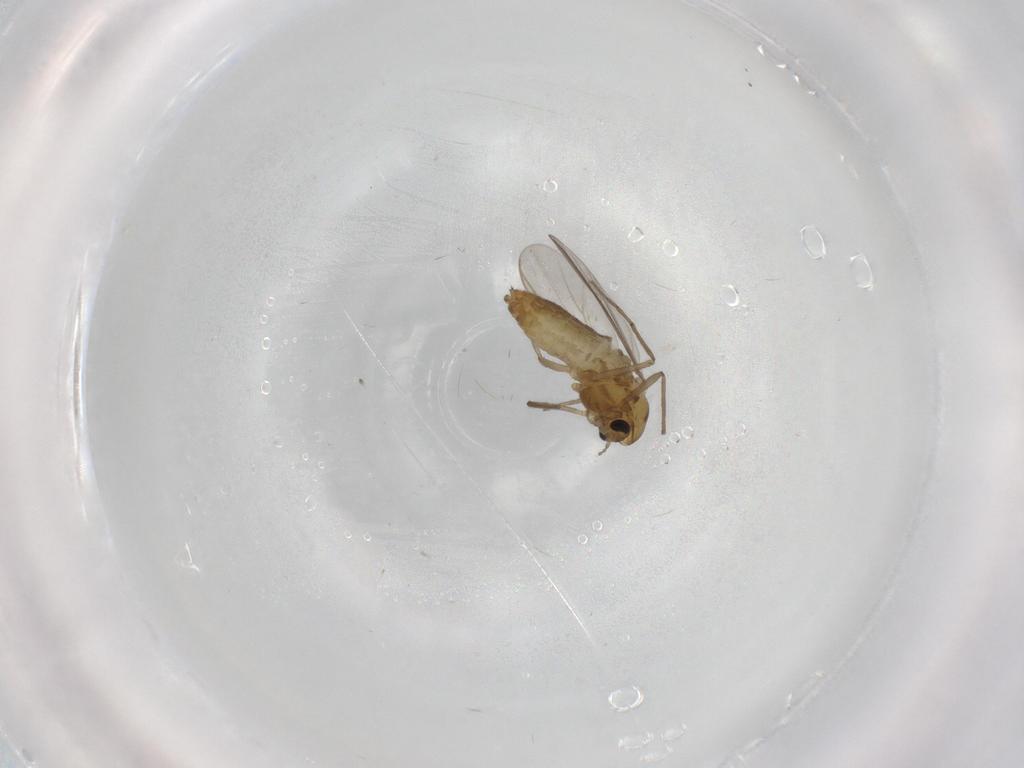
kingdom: Animalia
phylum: Arthropoda
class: Insecta
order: Diptera
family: Chironomidae
